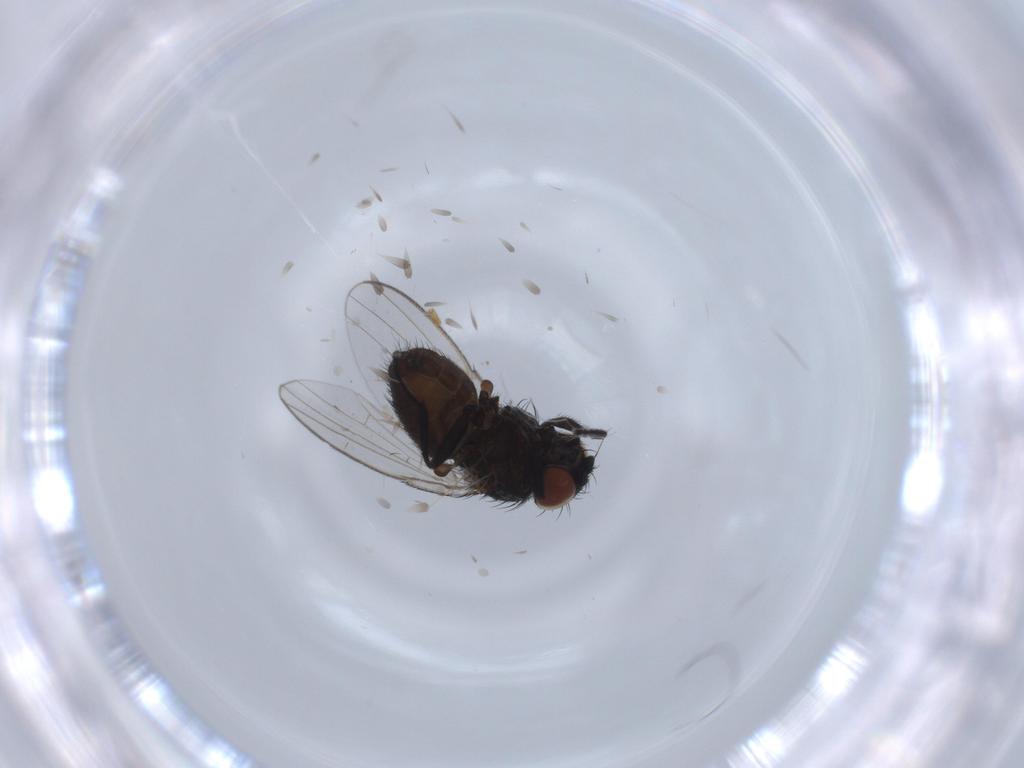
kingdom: Animalia
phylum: Arthropoda
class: Insecta
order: Diptera
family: Milichiidae
